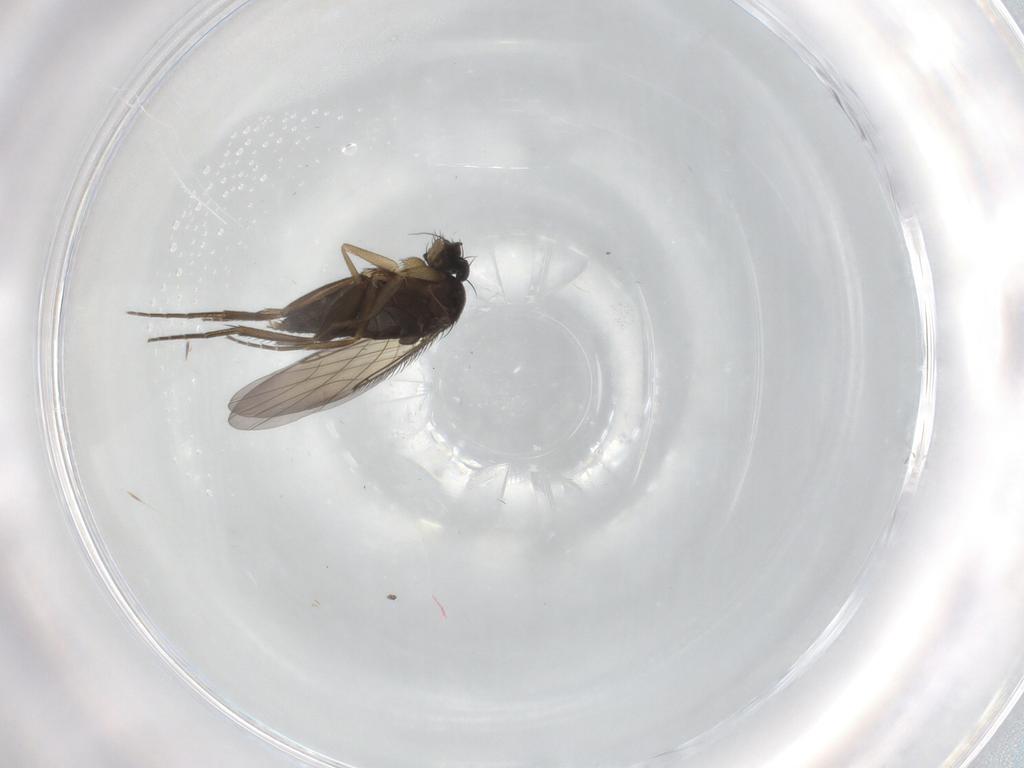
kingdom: Animalia
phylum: Arthropoda
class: Insecta
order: Diptera
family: Phoridae
